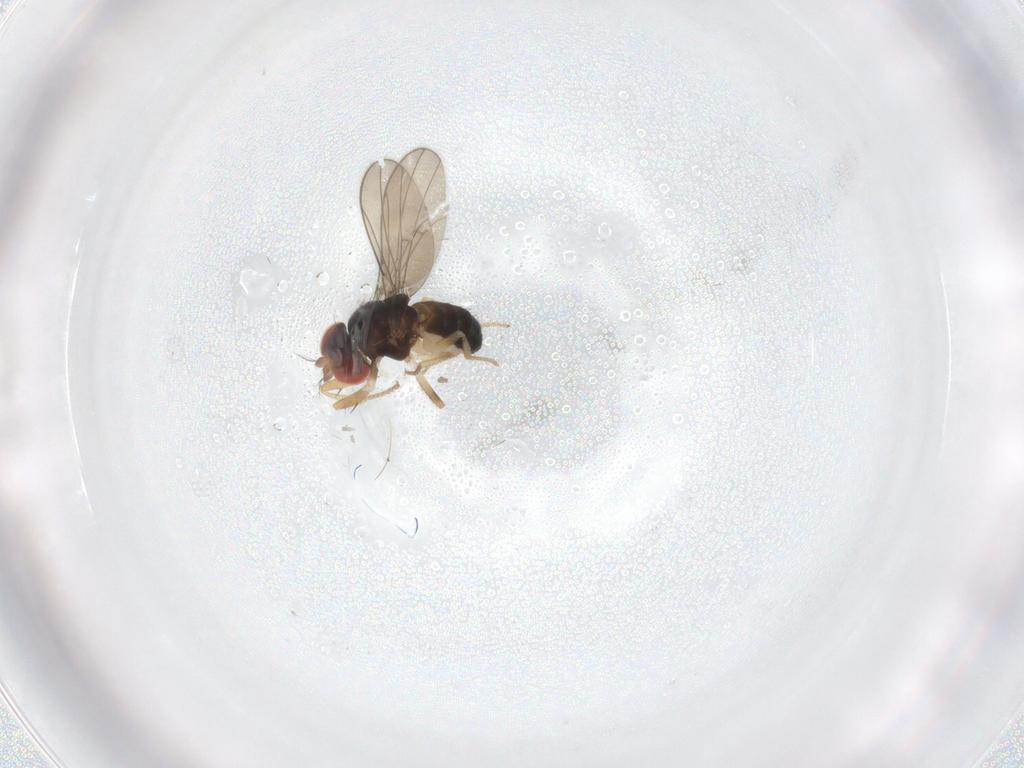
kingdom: Animalia
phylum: Arthropoda
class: Insecta
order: Diptera
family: Drosophilidae
